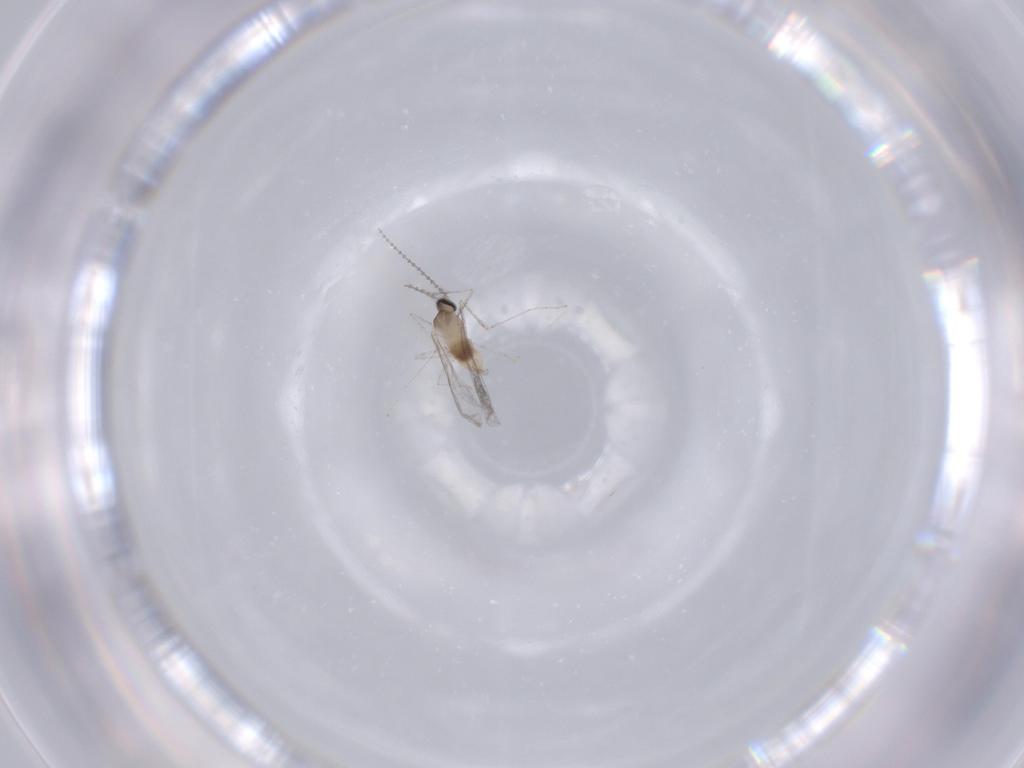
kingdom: Animalia
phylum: Arthropoda
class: Insecta
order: Diptera
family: Cecidomyiidae
